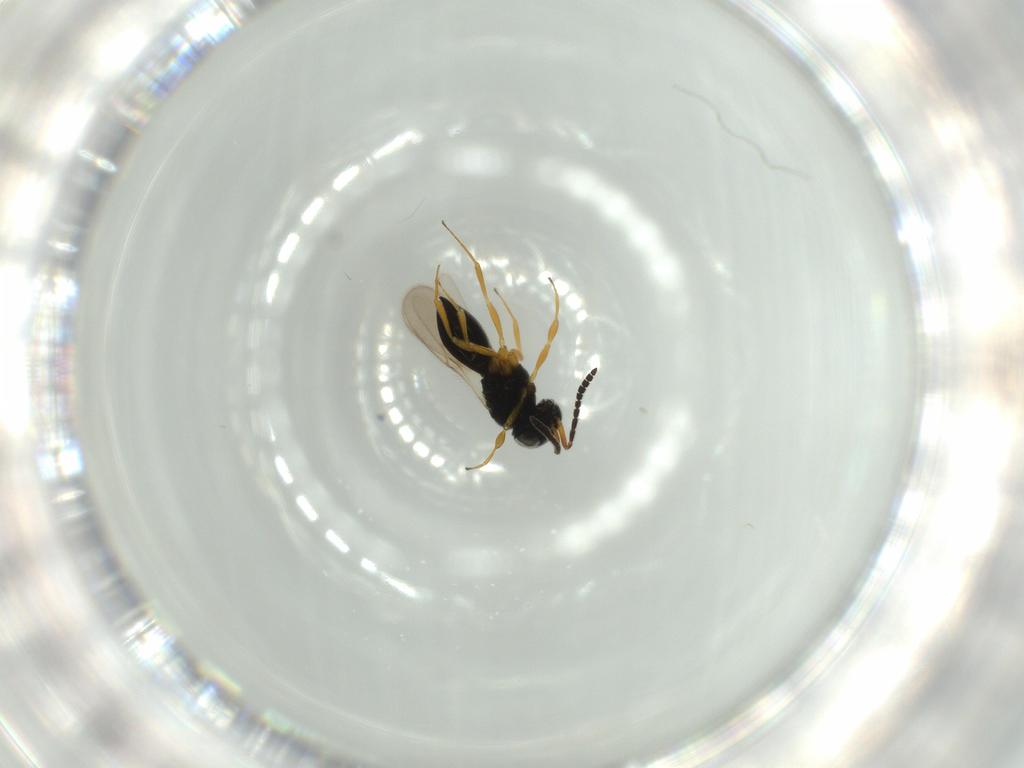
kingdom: Animalia
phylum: Arthropoda
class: Insecta
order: Hymenoptera
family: Scelionidae
